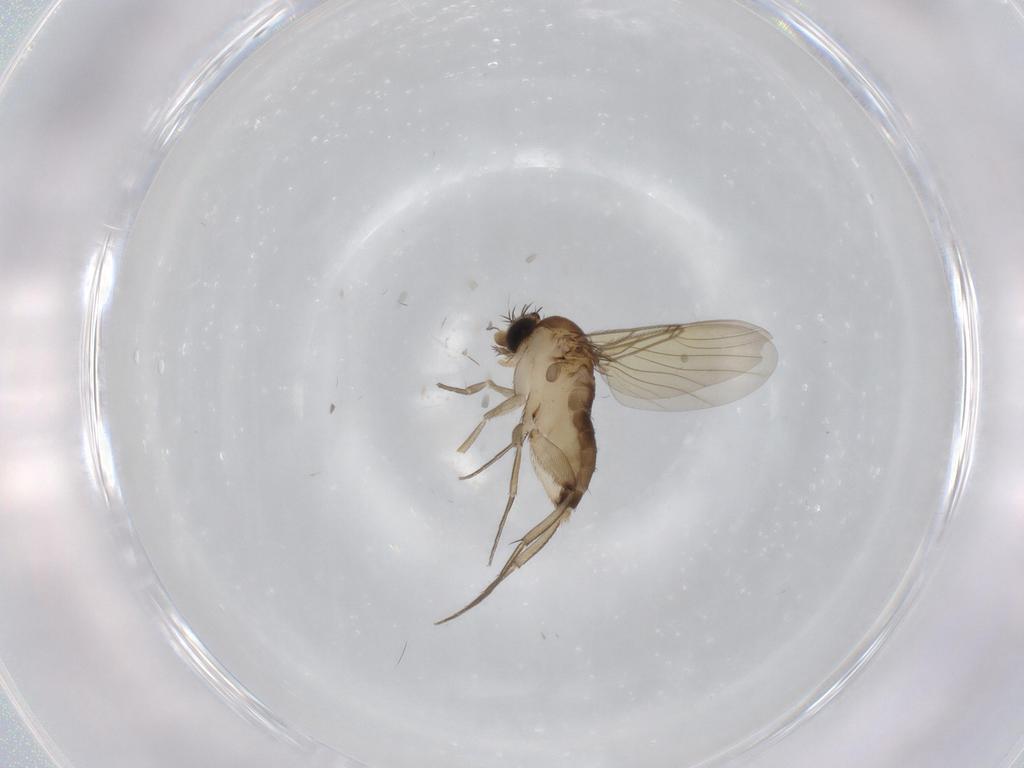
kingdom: Animalia
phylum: Arthropoda
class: Insecta
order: Diptera
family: Phoridae
